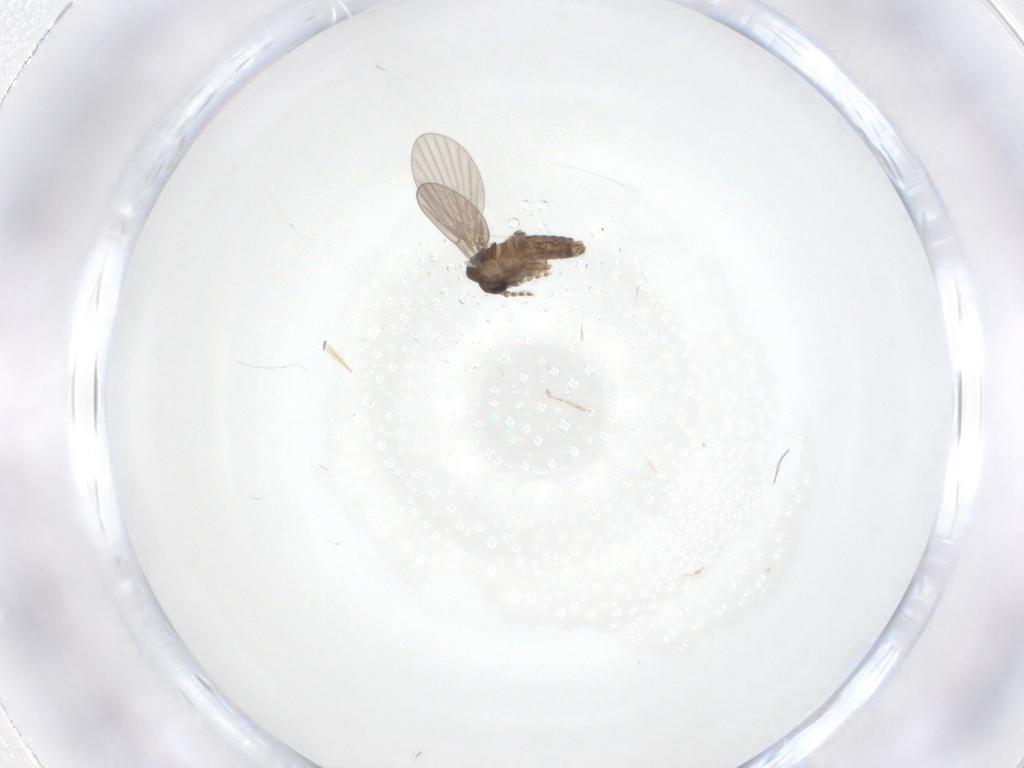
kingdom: Animalia
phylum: Arthropoda
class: Insecta
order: Diptera
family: Psychodidae
